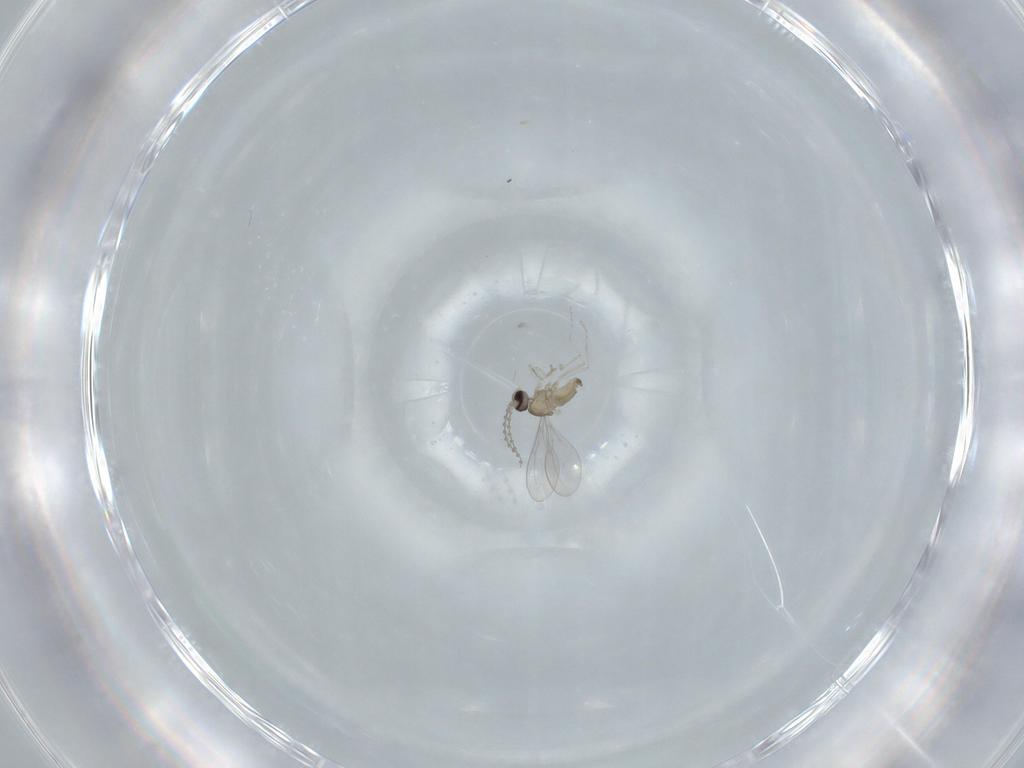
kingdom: Animalia
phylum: Arthropoda
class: Insecta
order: Diptera
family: Cecidomyiidae
